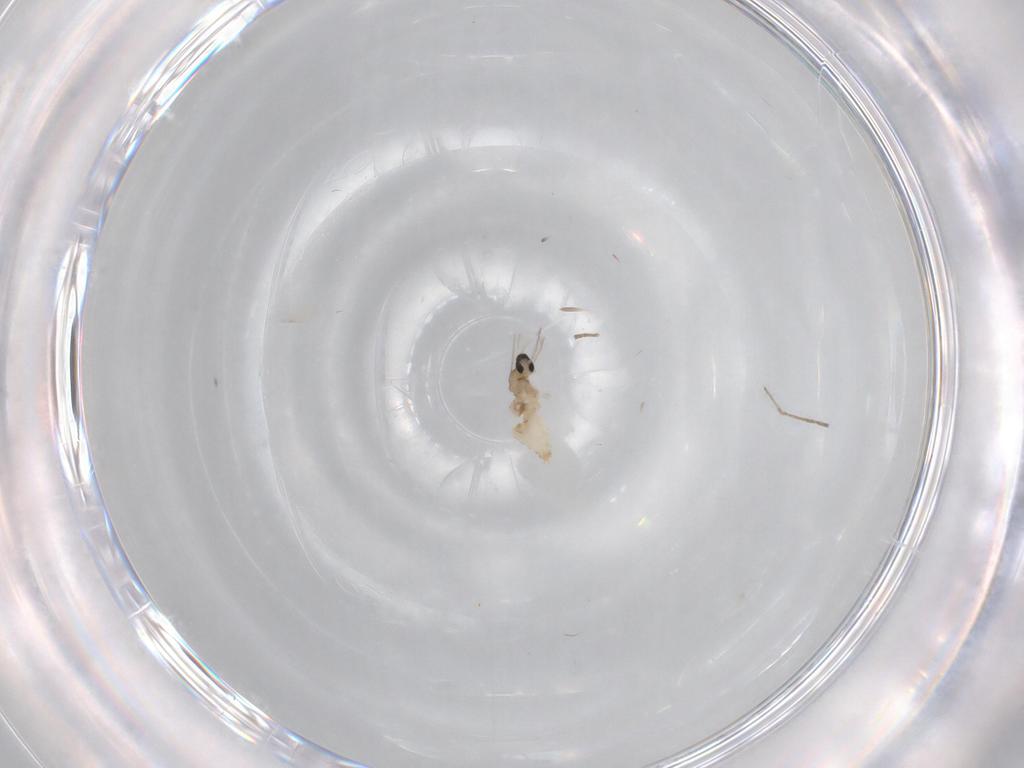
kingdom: Animalia
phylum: Arthropoda
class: Insecta
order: Diptera
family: Cecidomyiidae
